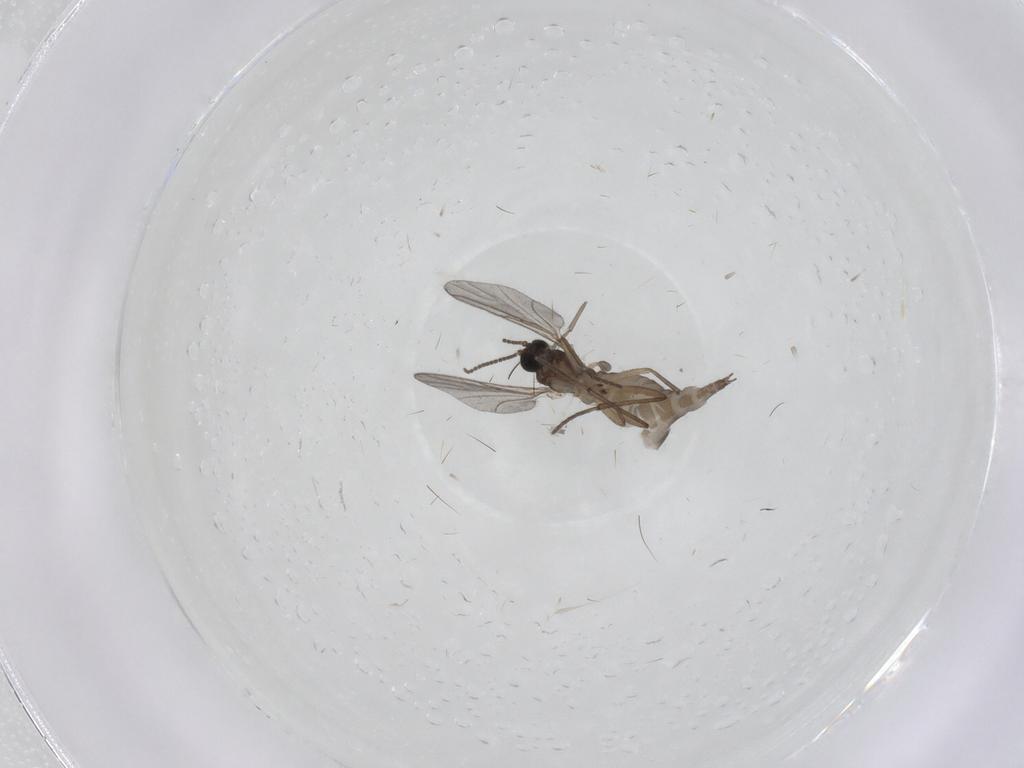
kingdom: Animalia
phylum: Arthropoda
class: Insecta
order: Diptera
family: Sciaridae
